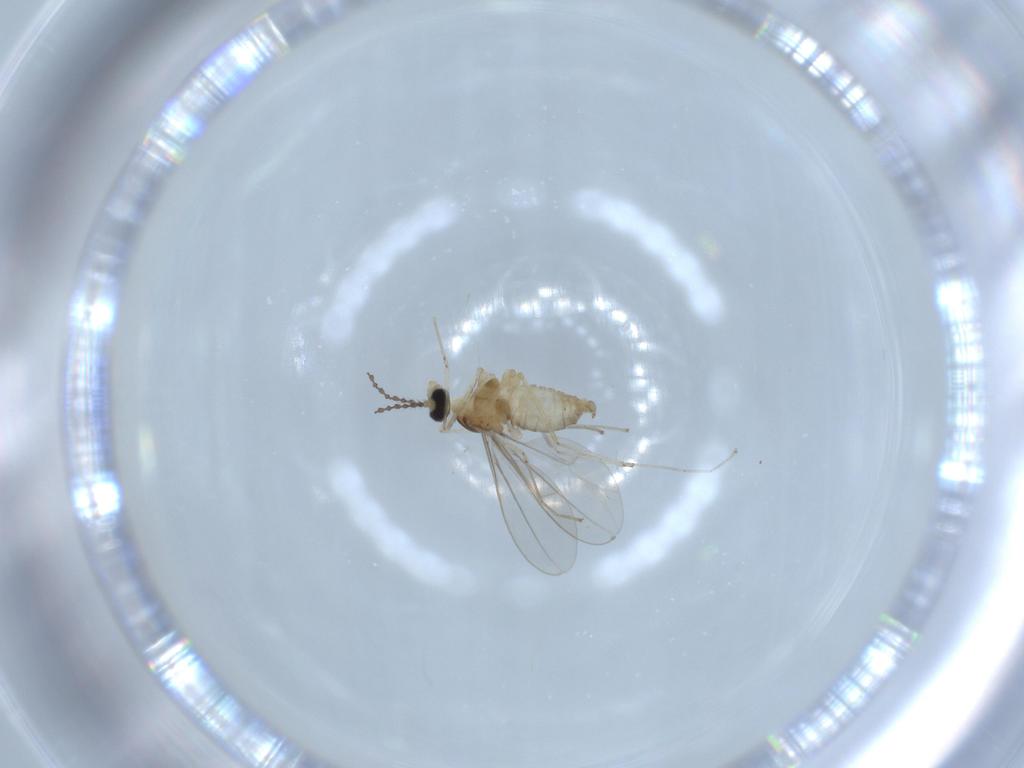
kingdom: Animalia
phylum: Arthropoda
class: Insecta
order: Diptera
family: Cecidomyiidae
